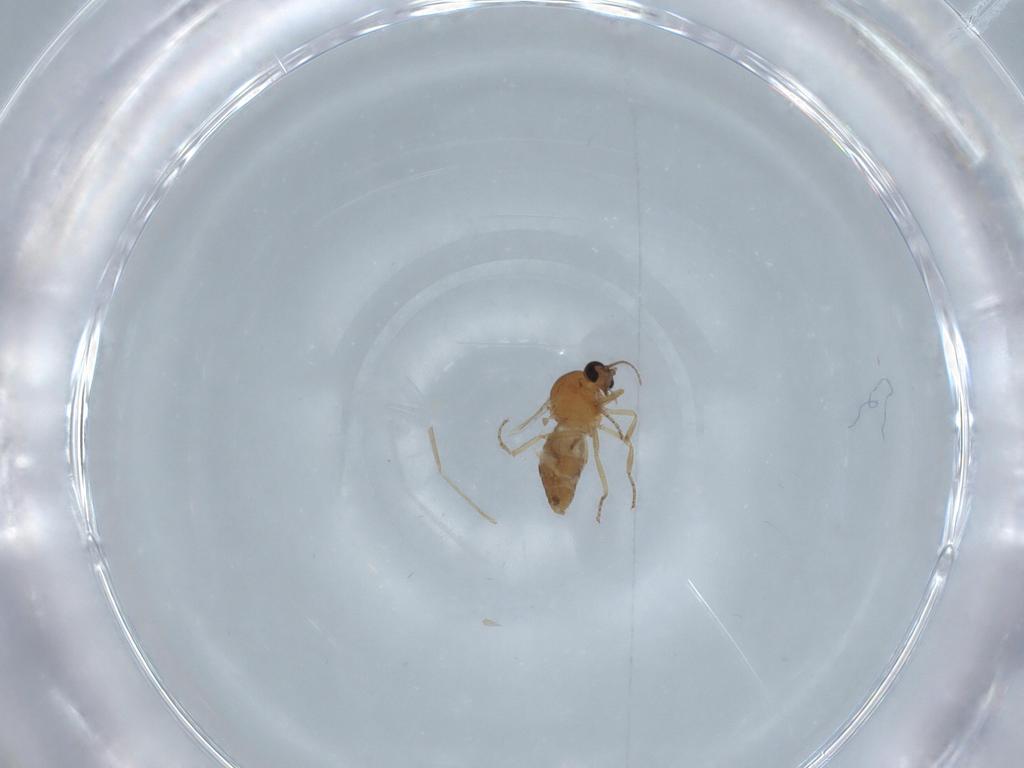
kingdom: Animalia
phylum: Arthropoda
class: Insecta
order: Diptera
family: Ceratopogonidae
